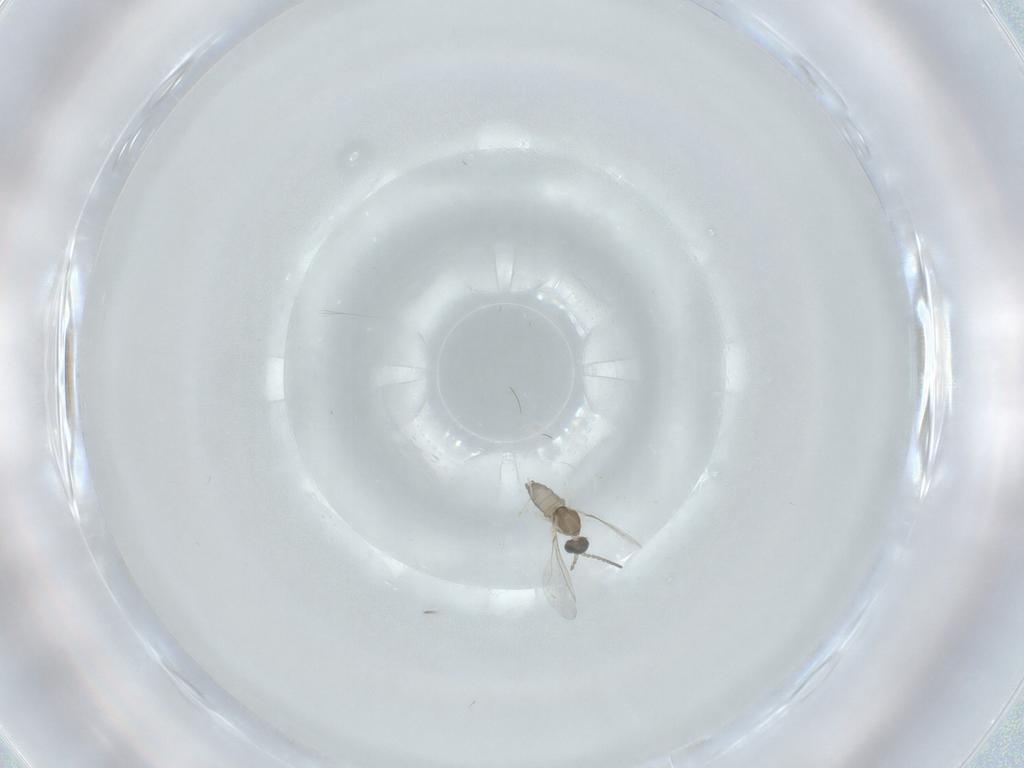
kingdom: Animalia
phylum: Arthropoda
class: Insecta
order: Diptera
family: Cecidomyiidae
